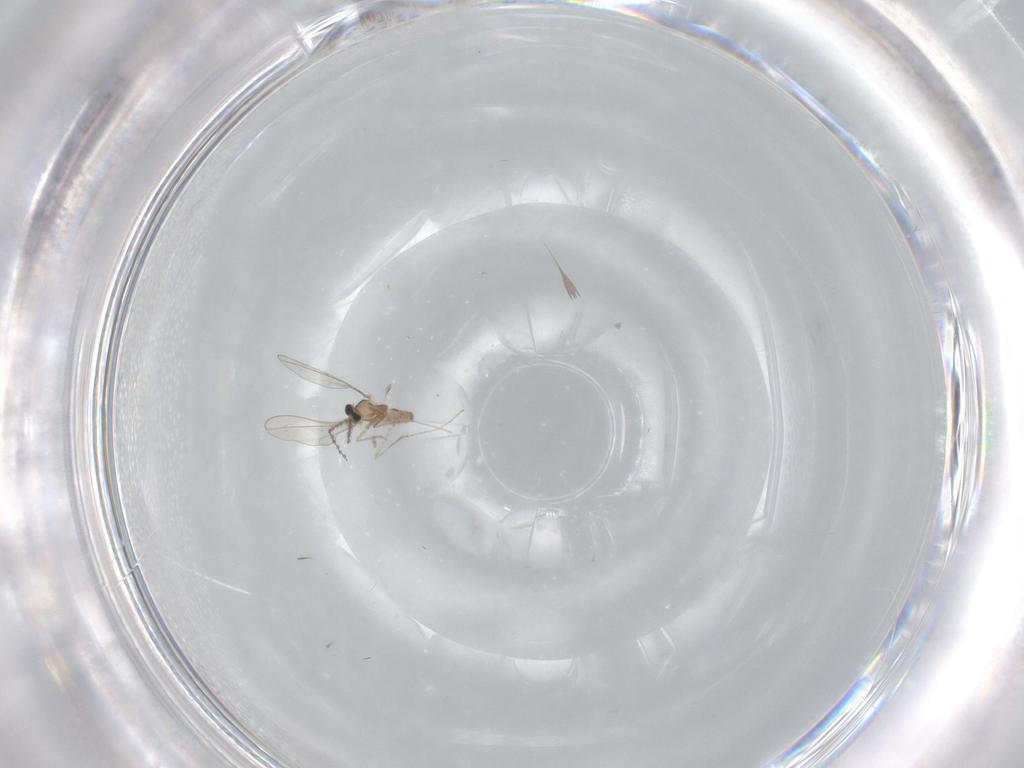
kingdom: Animalia
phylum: Arthropoda
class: Insecta
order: Diptera
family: Cecidomyiidae
